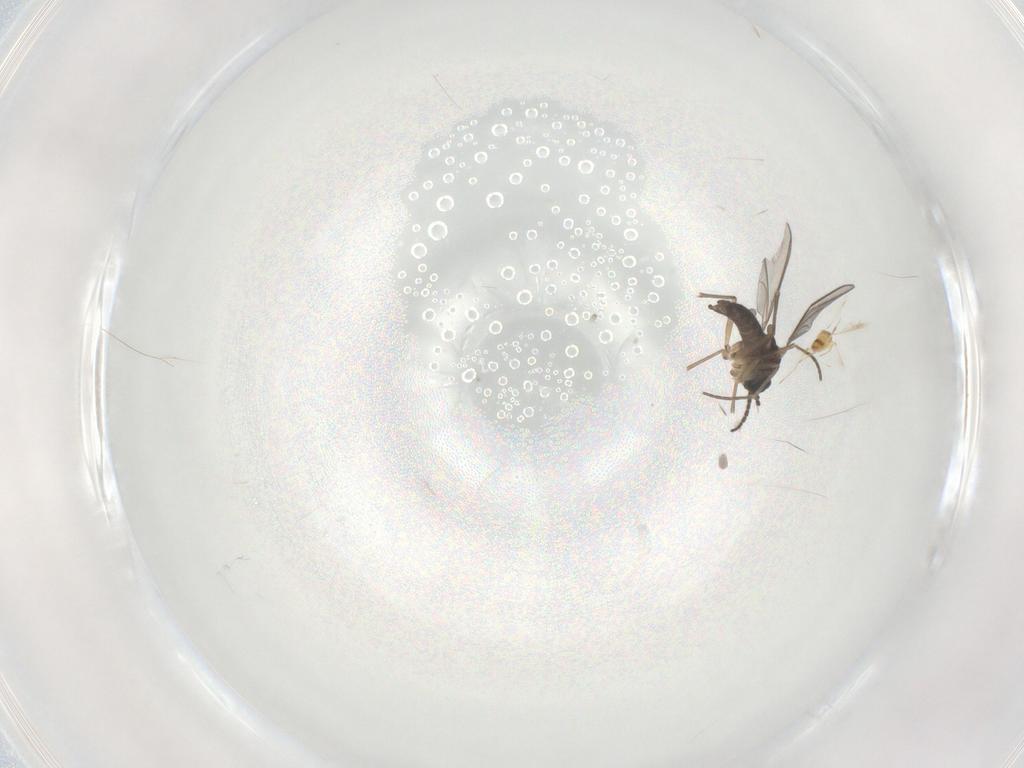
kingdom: Animalia
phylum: Arthropoda
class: Insecta
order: Diptera
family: Sciaridae
